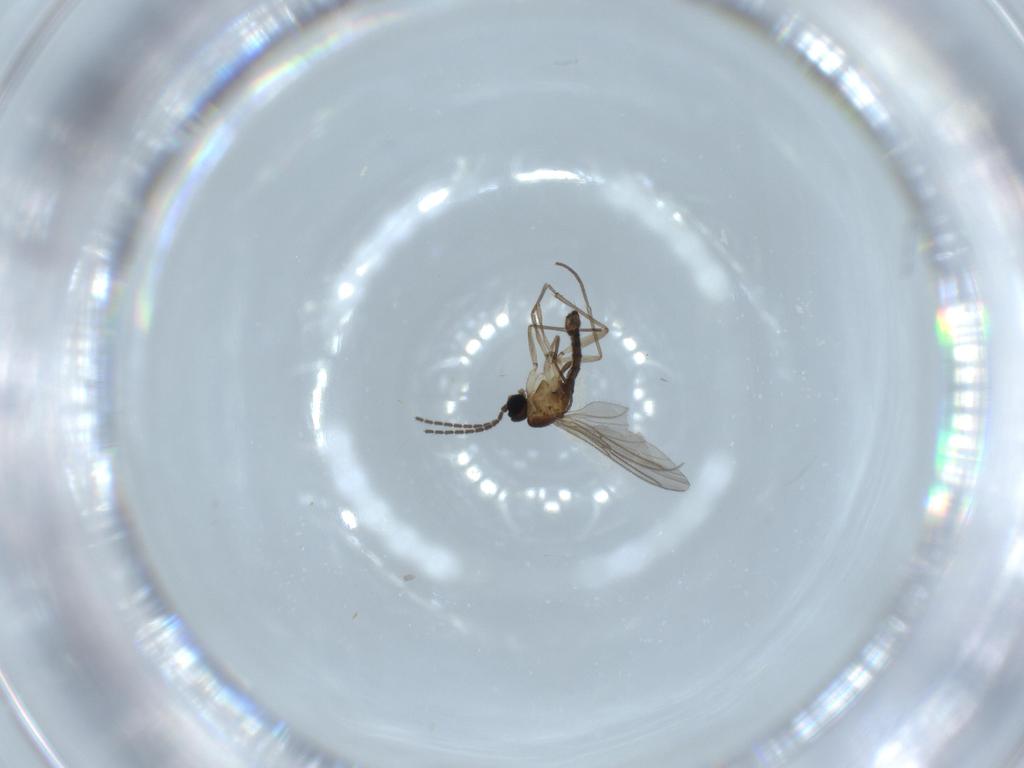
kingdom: Animalia
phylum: Arthropoda
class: Insecta
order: Diptera
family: Sciaridae
